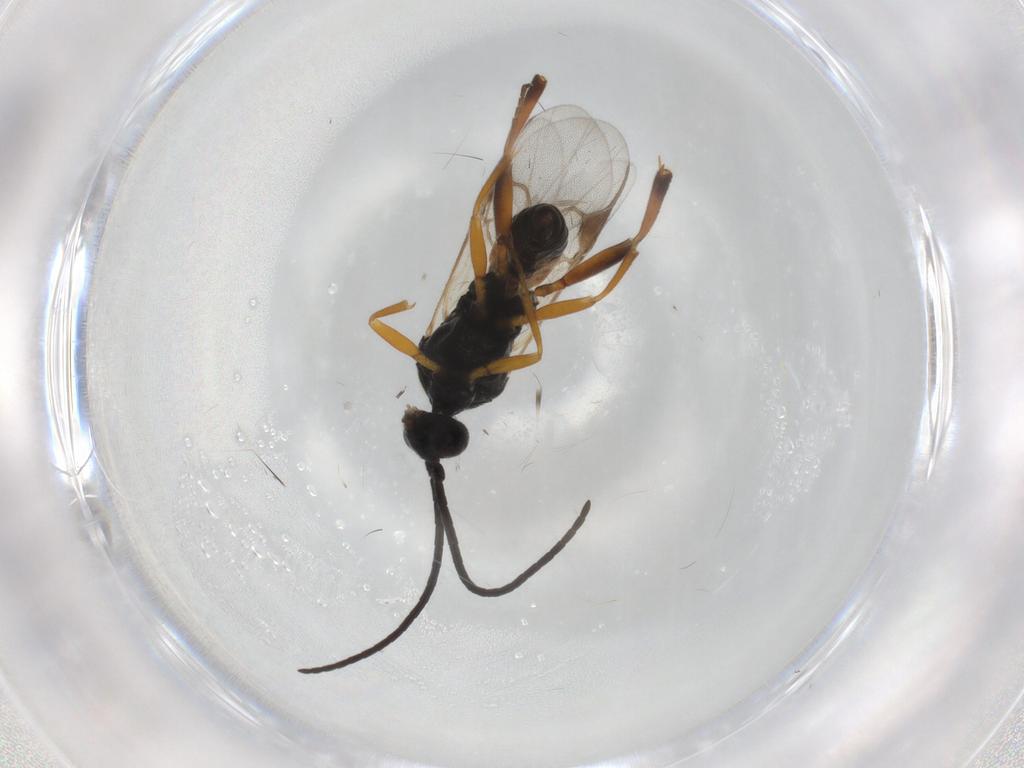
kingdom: Animalia
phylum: Arthropoda
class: Insecta
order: Hymenoptera
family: Braconidae
